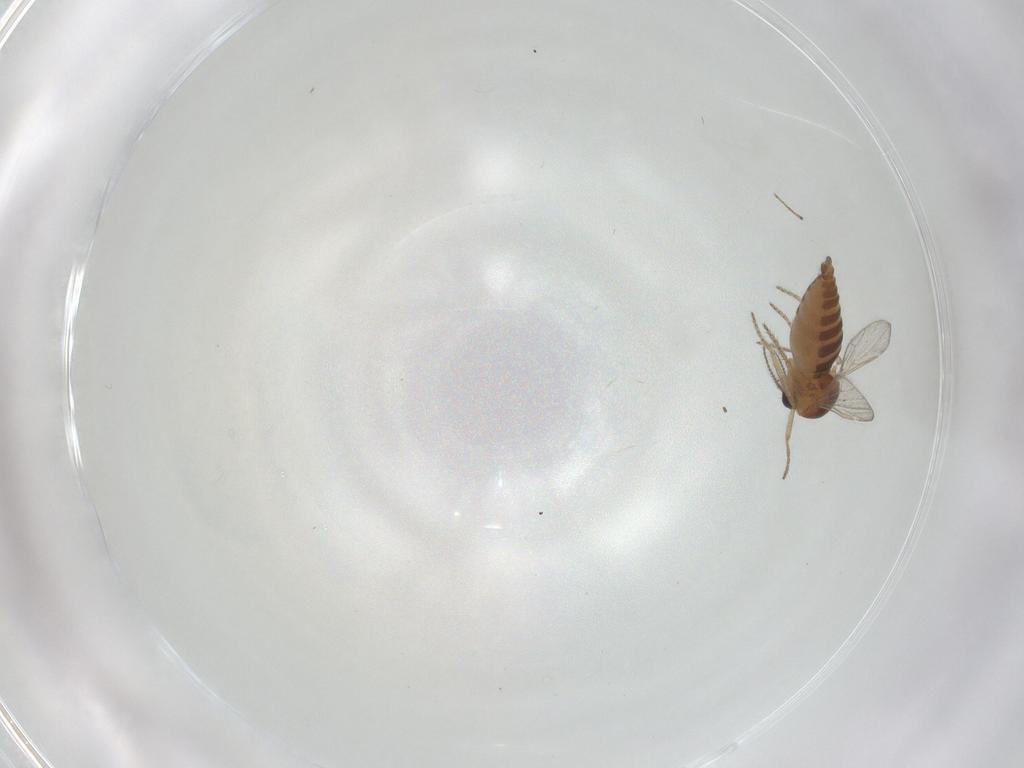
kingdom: Animalia
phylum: Arthropoda
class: Insecta
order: Diptera
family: Ceratopogonidae
